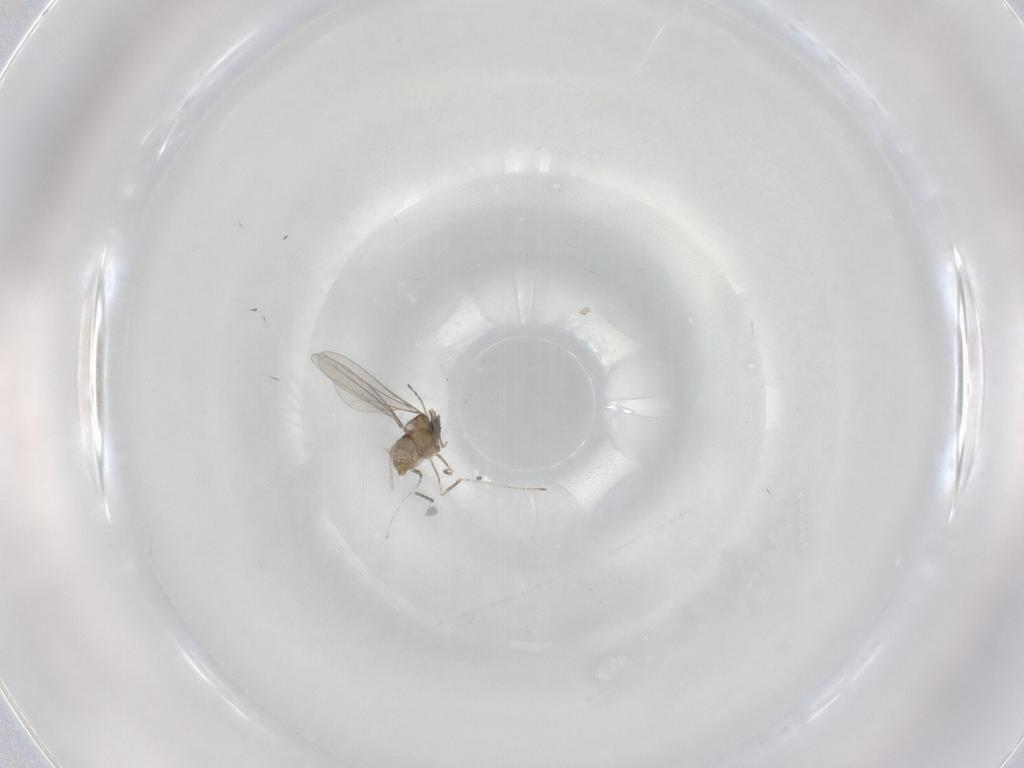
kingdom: Animalia
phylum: Arthropoda
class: Insecta
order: Diptera
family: Cecidomyiidae
